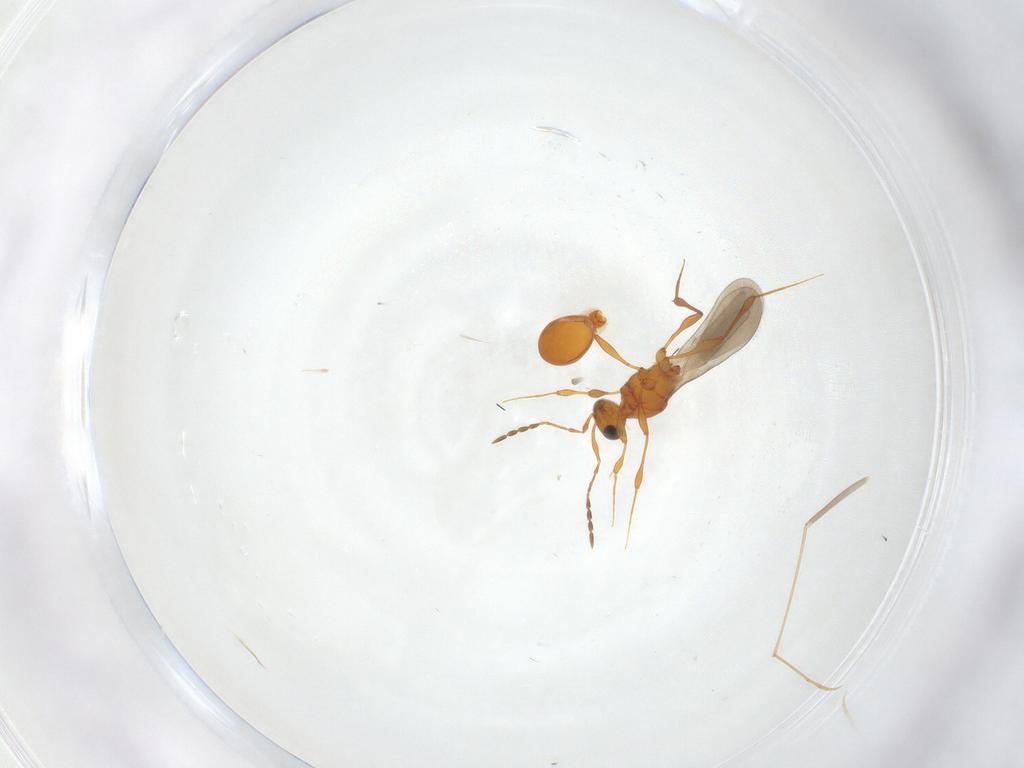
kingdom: Animalia
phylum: Arthropoda
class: Insecta
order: Hymenoptera
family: Platygastridae
